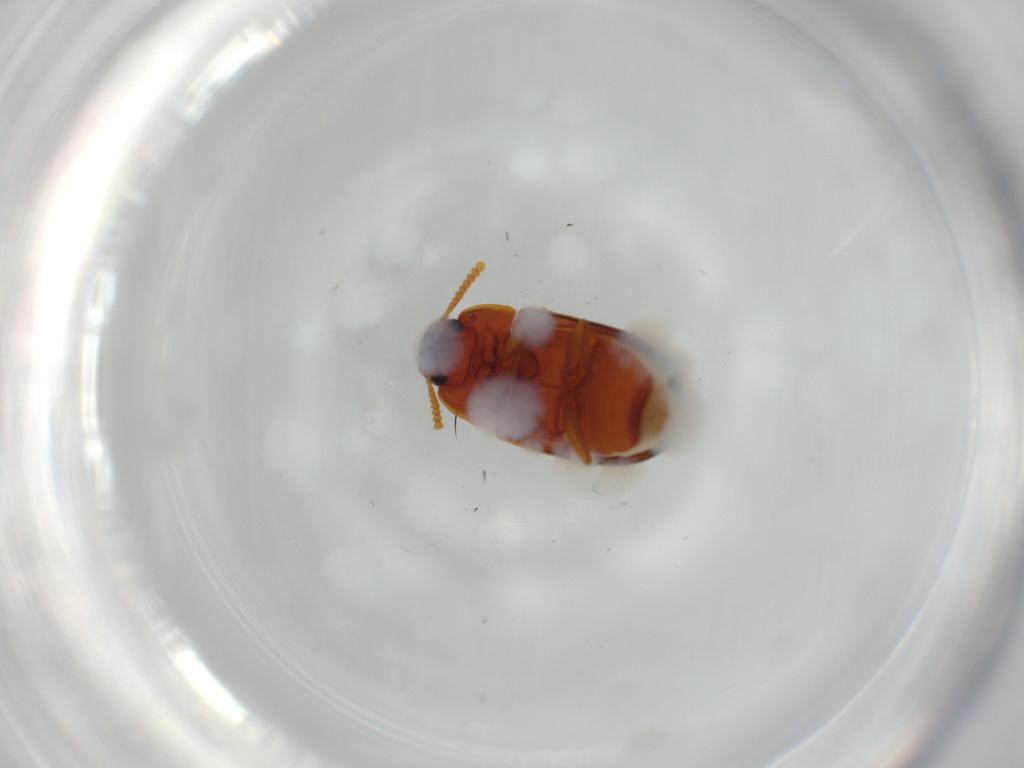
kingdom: Animalia
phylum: Arthropoda
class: Insecta
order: Coleoptera
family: Tenebrionidae
